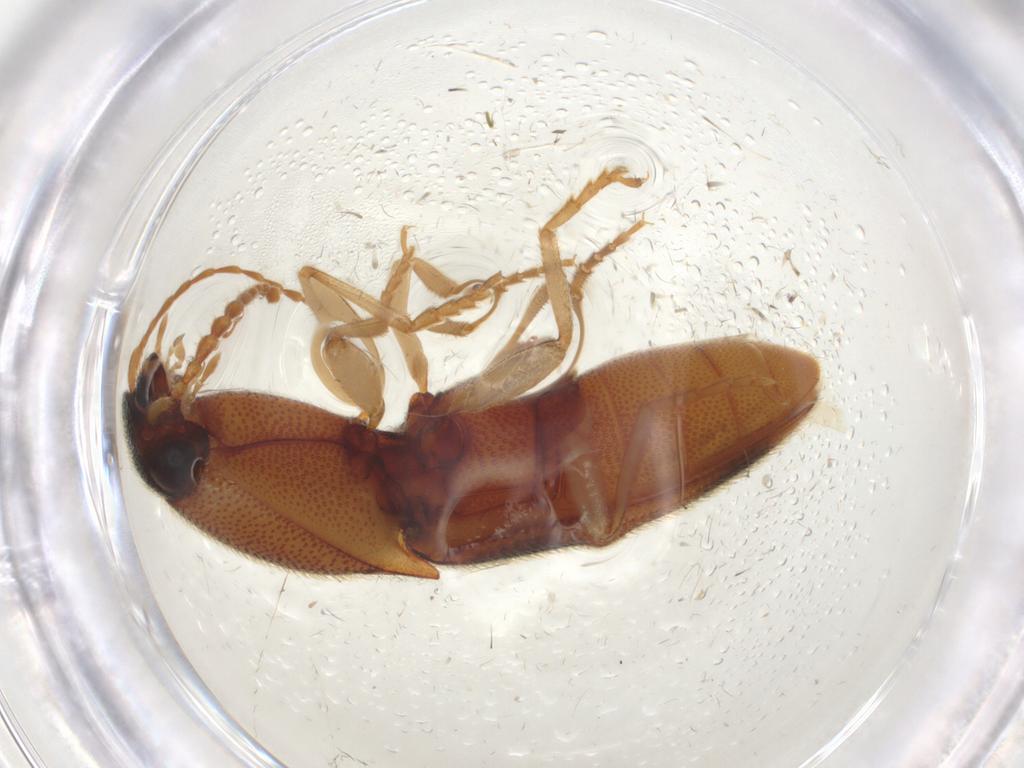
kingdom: Animalia
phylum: Arthropoda
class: Insecta
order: Coleoptera
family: Elateridae
